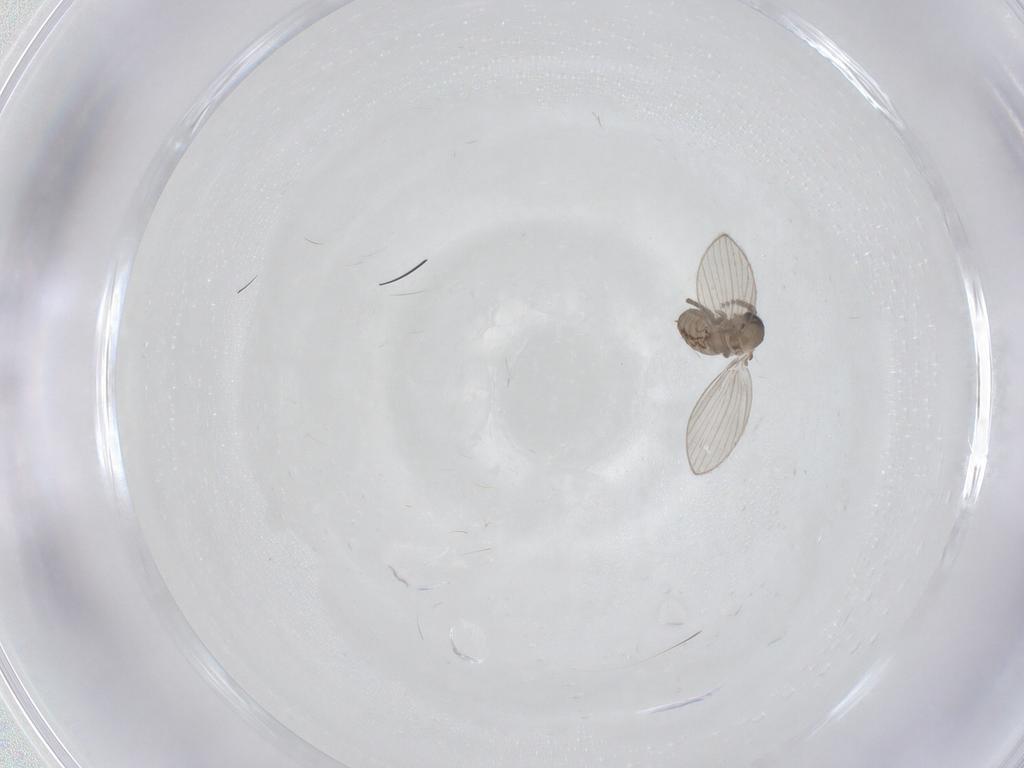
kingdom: Animalia
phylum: Arthropoda
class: Insecta
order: Diptera
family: Psychodidae
